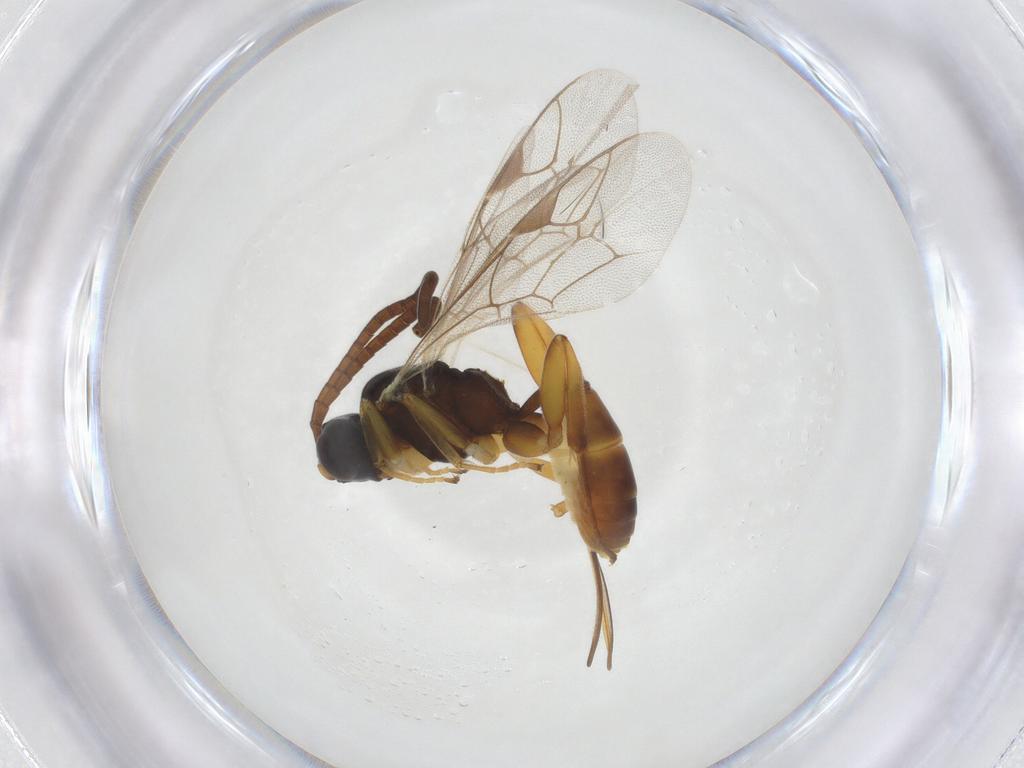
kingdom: Animalia
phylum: Arthropoda
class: Insecta
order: Hymenoptera
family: Ichneumonidae
